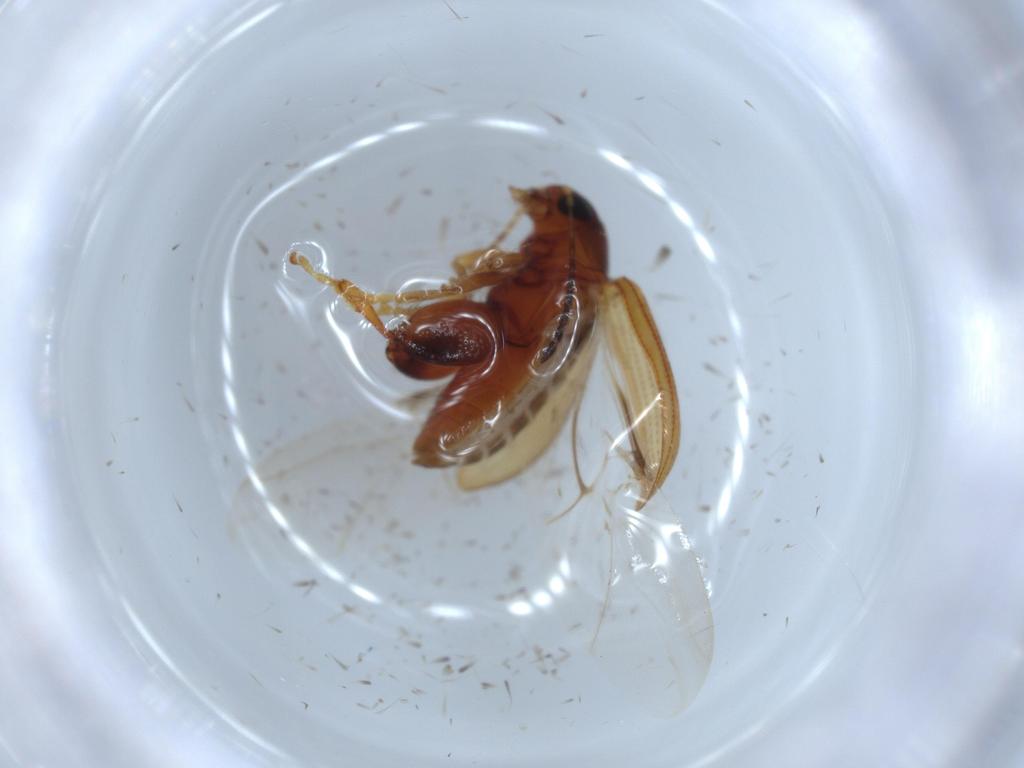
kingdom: Animalia
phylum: Arthropoda
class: Insecta
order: Coleoptera
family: Chrysomelidae
